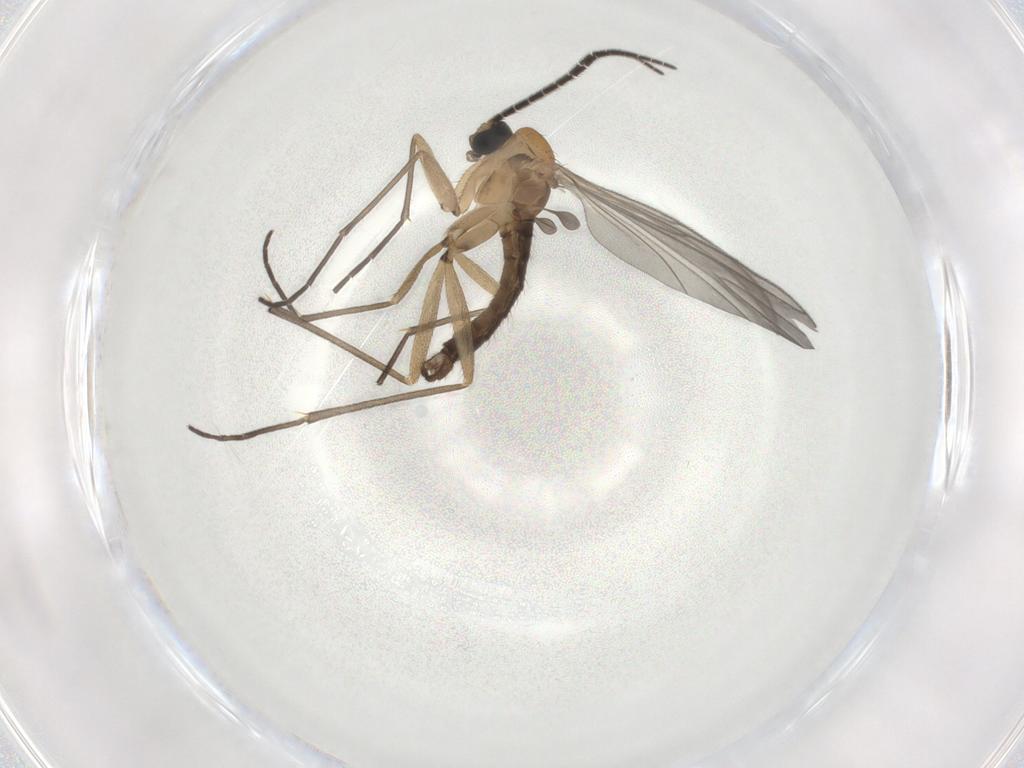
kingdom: Animalia
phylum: Arthropoda
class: Insecta
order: Diptera
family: Sciaridae
